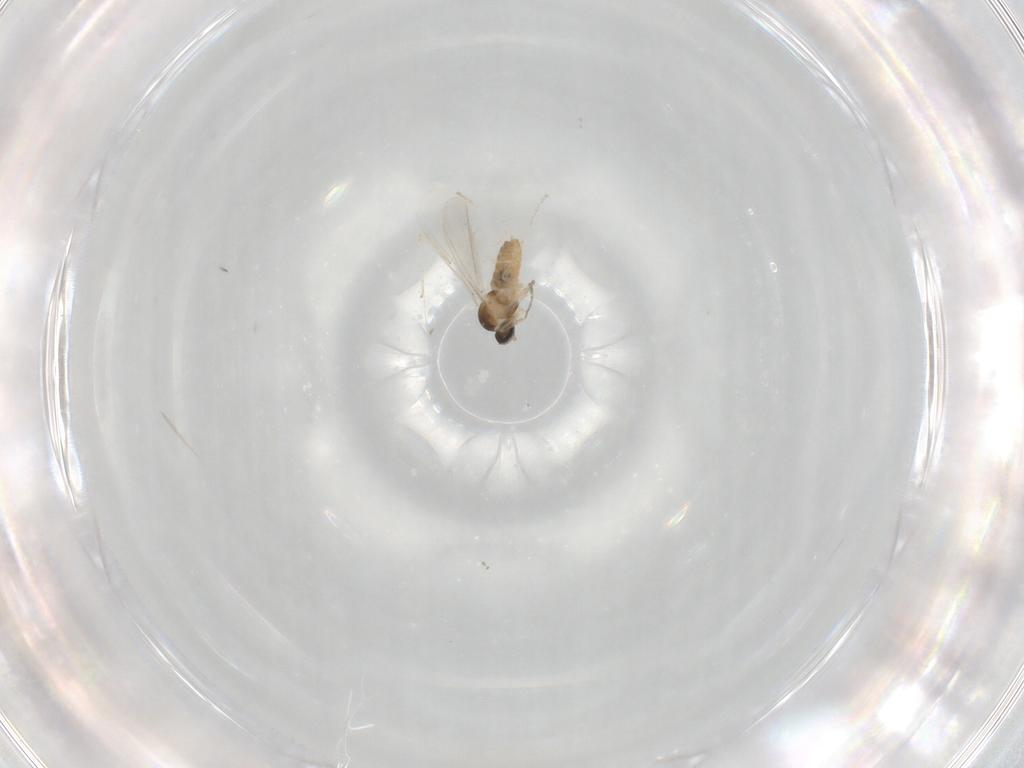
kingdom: Animalia
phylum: Arthropoda
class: Insecta
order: Diptera
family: Cecidomyiidae
